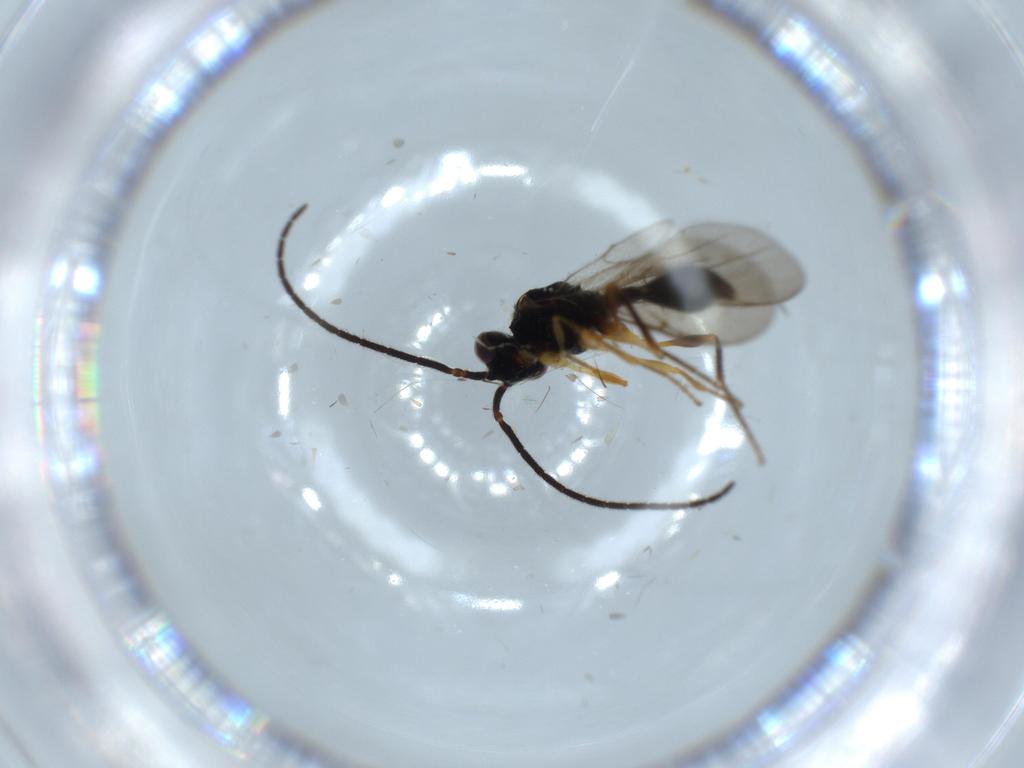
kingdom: Animalia
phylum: Arthropoda
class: Insecta
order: Hymenoptera
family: Diapriidae
